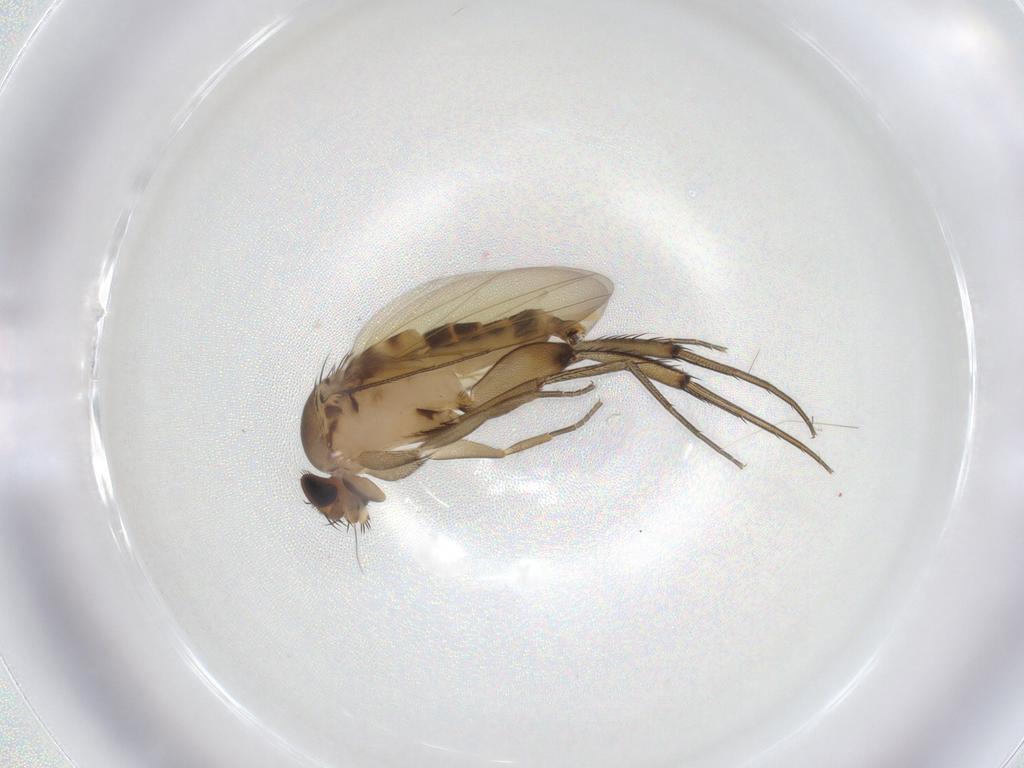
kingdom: Animalia
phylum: Arthropoda
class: Insecta
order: Diptera
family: Phoridae
